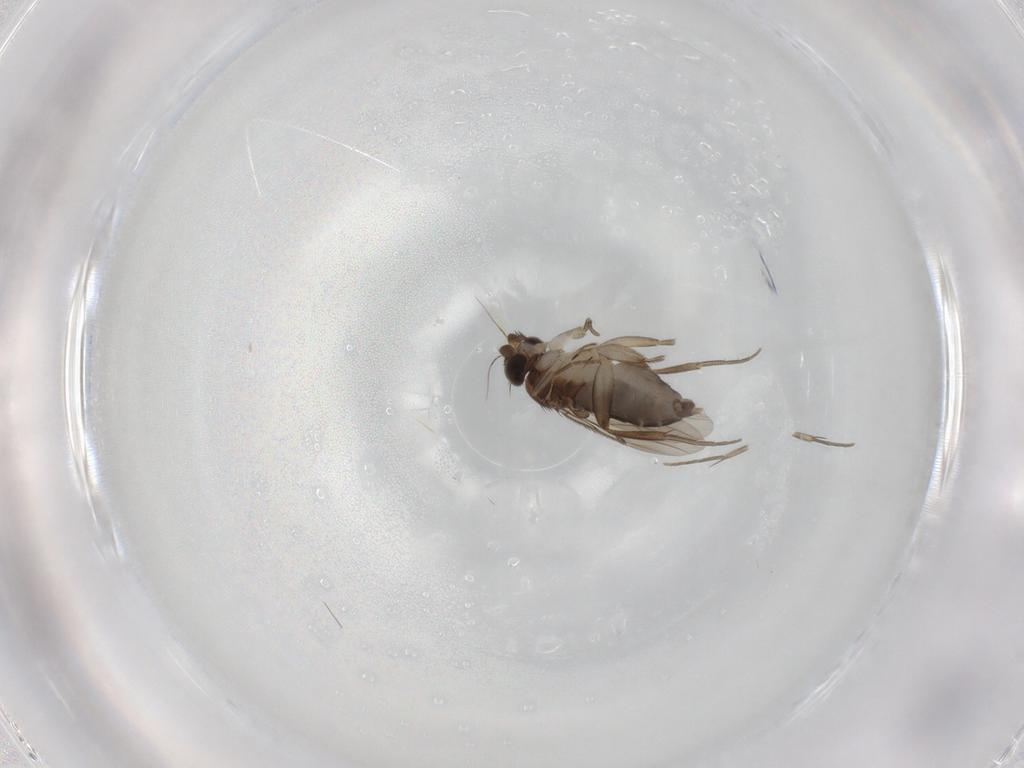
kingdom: Animalia
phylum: Arthropoda
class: Insecta
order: Diptera
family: Phoridae
